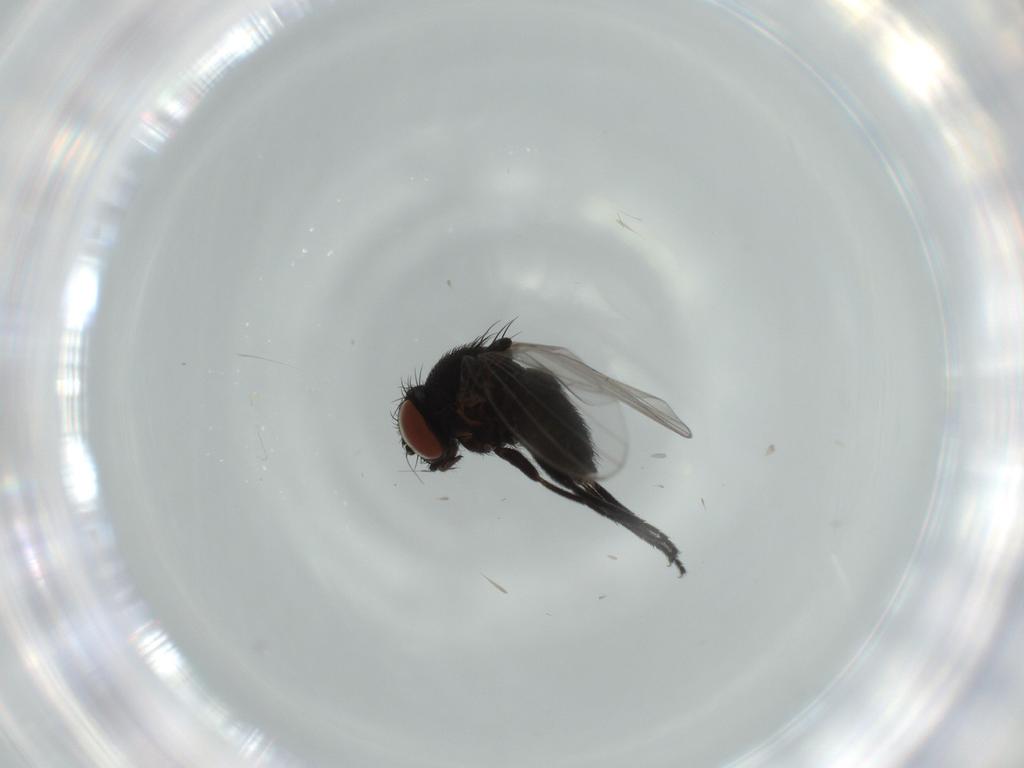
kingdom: Animalia
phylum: Arthropoda
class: Insecta
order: Diptera
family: Milichiidae
